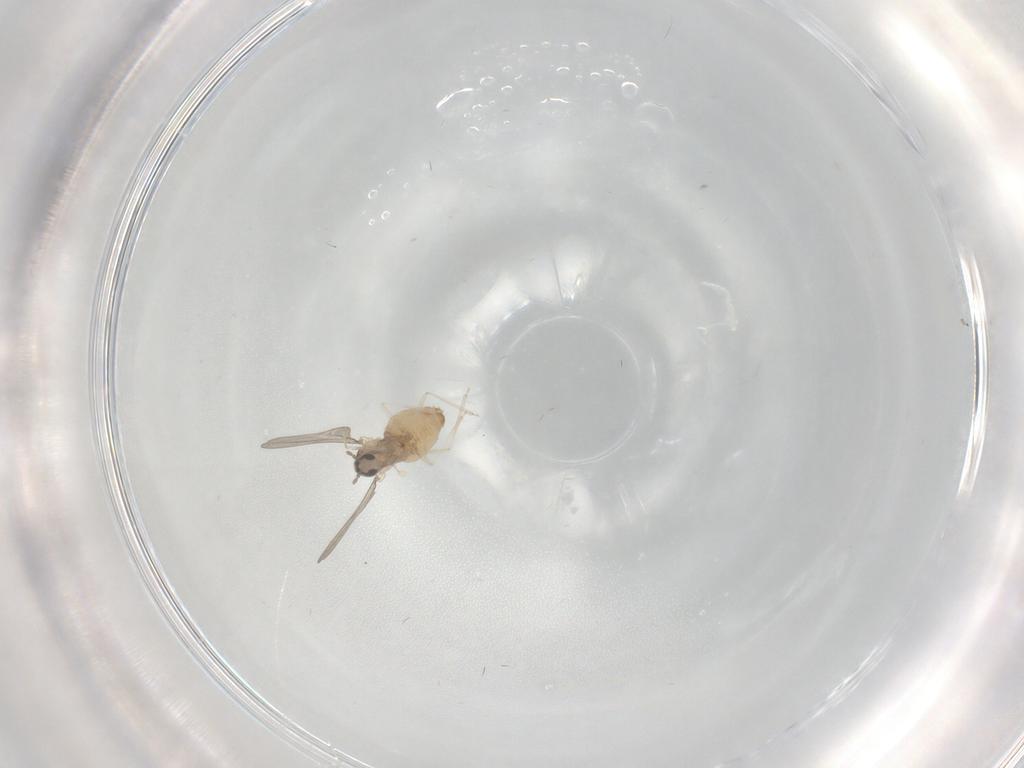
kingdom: Animalia
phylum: Arthropoda
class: Insecta
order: Diptera
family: Cecidomyiidae
